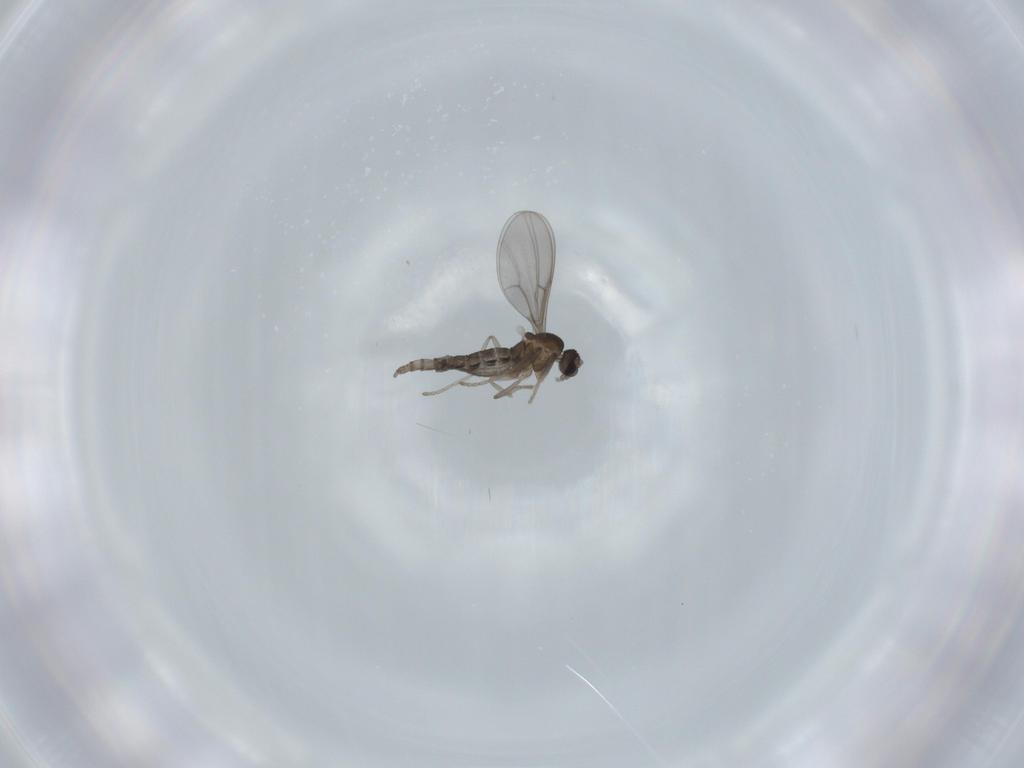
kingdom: Animalia
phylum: Arthropoda
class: Insecta
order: Diptera
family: Cecidomyiidae
